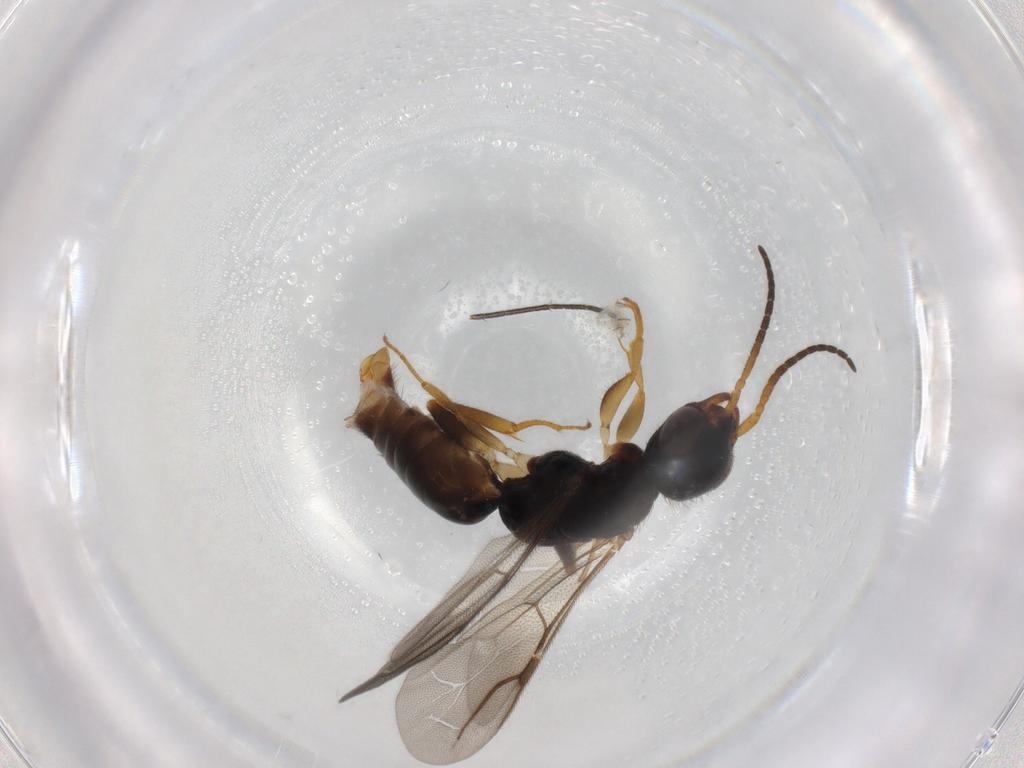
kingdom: Animalia
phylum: Arthropoda
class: Insecta
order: Hymenoptera
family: Bethylidae
